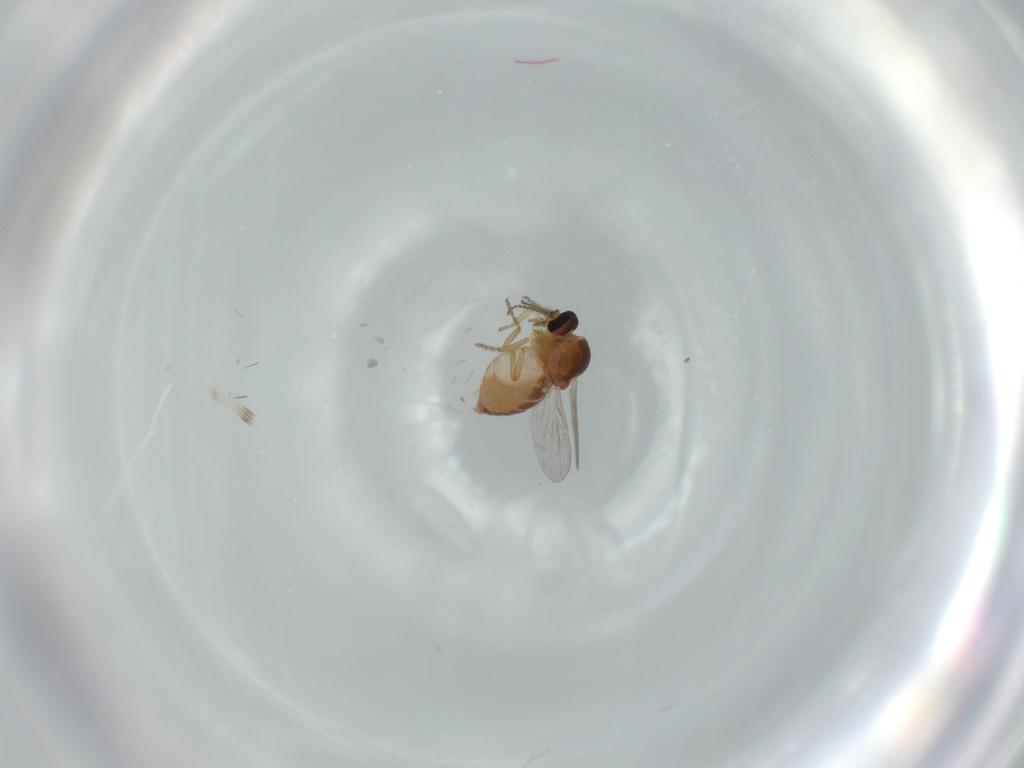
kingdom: Animalia
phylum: Arthropoda
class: Insecta
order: Diptera
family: Ceratopogonidae
